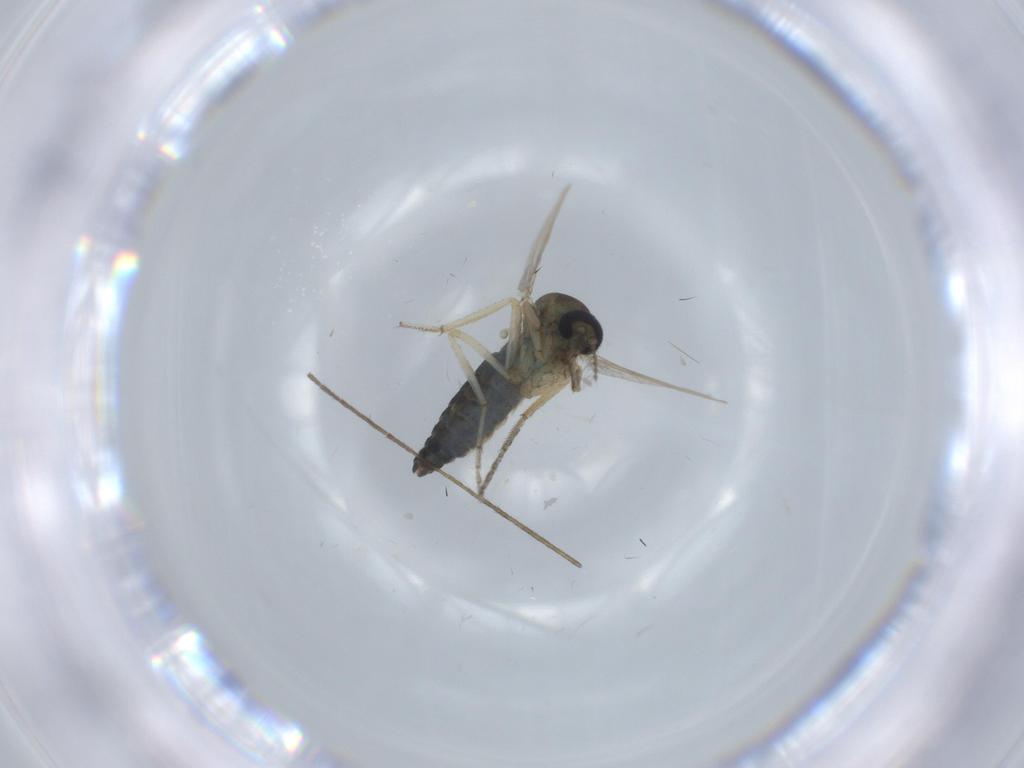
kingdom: Animalia
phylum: Arthropoda
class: Insecta
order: Diptera
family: Ceratopogonidae
